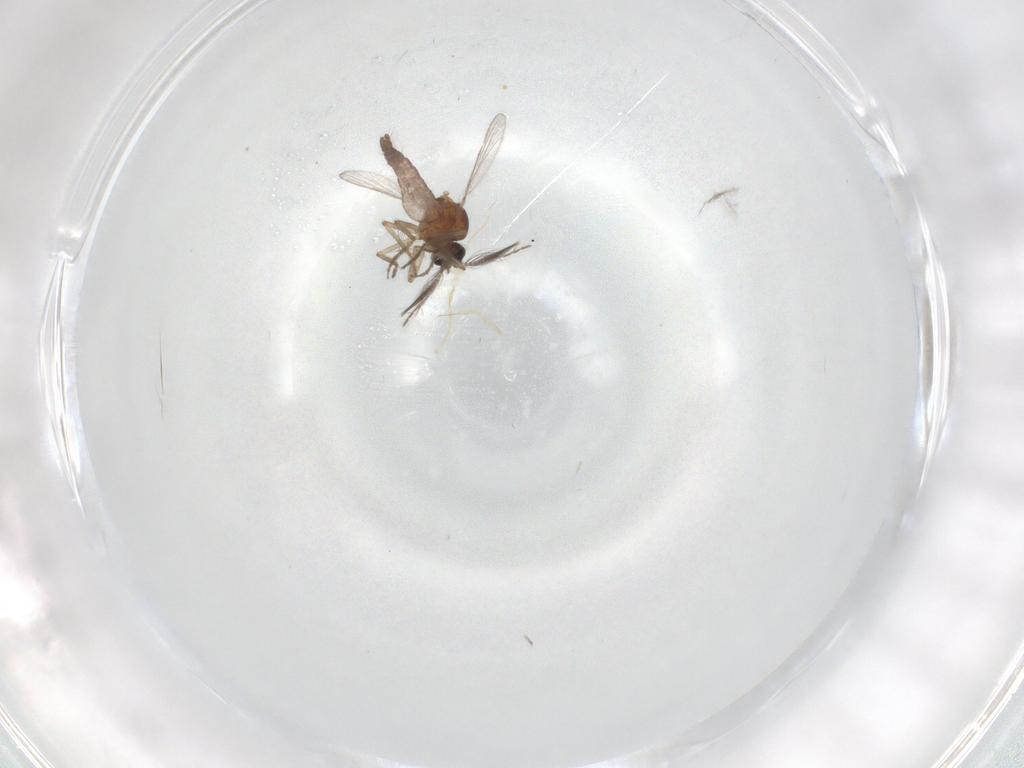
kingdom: Animalia
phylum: Arthropoda
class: Insecta
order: Diptera
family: Ceratopogonidae
